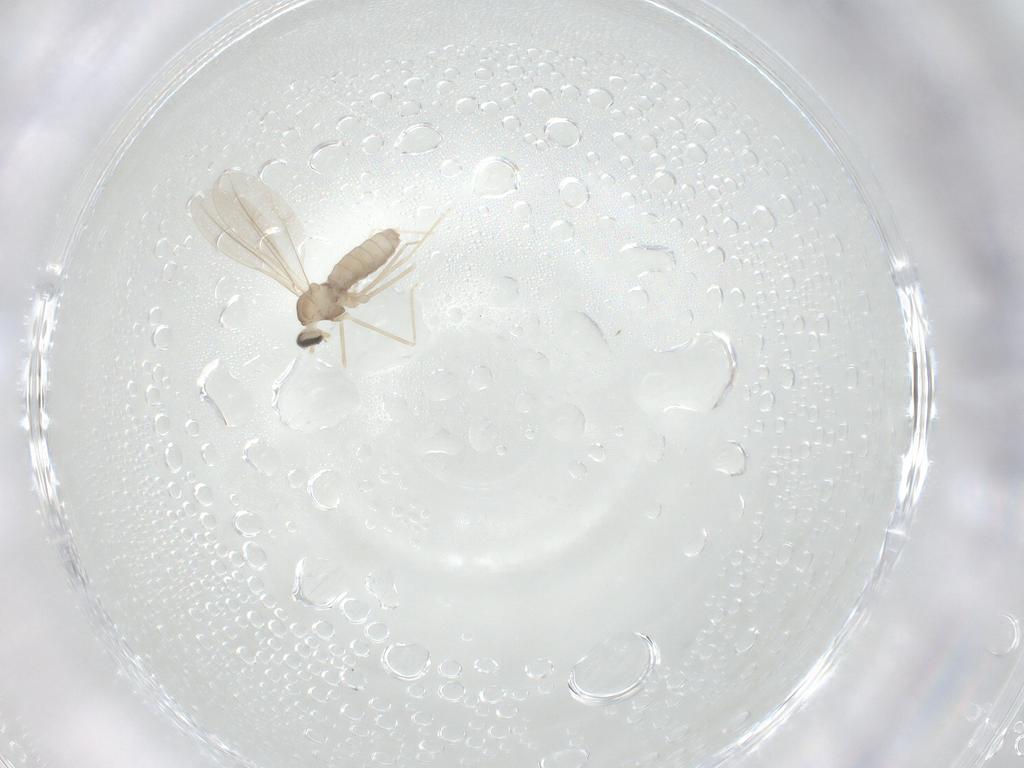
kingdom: Animalia
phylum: Arthropoda
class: Insecta
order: Diptera
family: Cecidomyiidae
